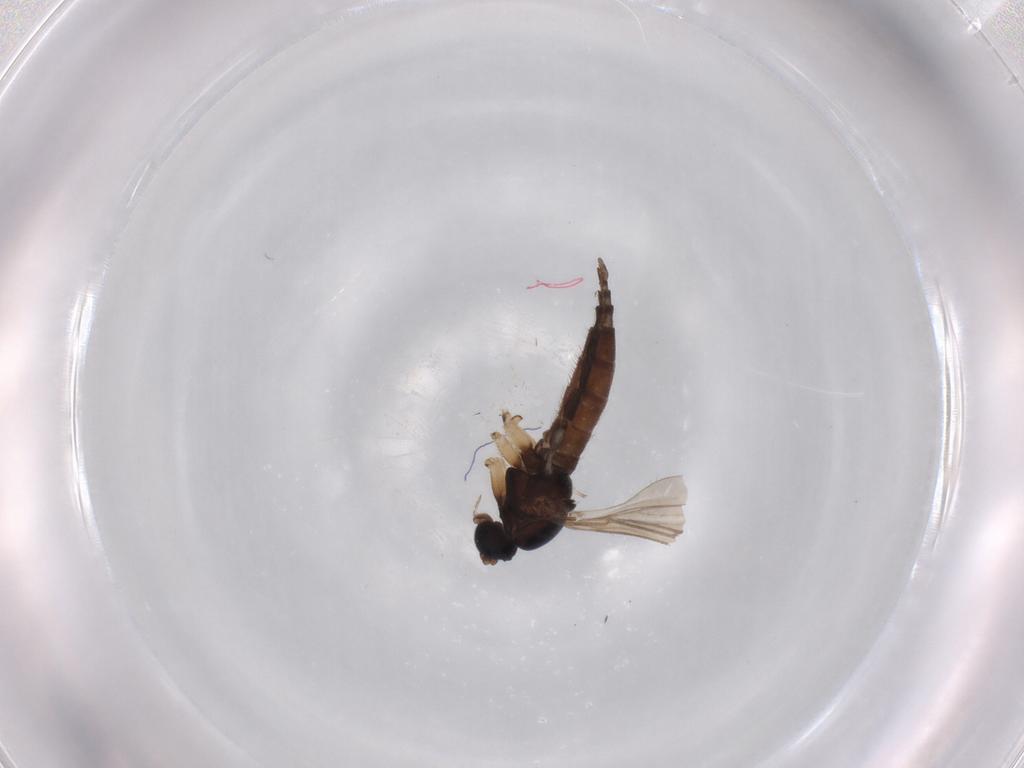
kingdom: Animalia
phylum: Arthropoda
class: Insecta
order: Diptera
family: Sciaridae
